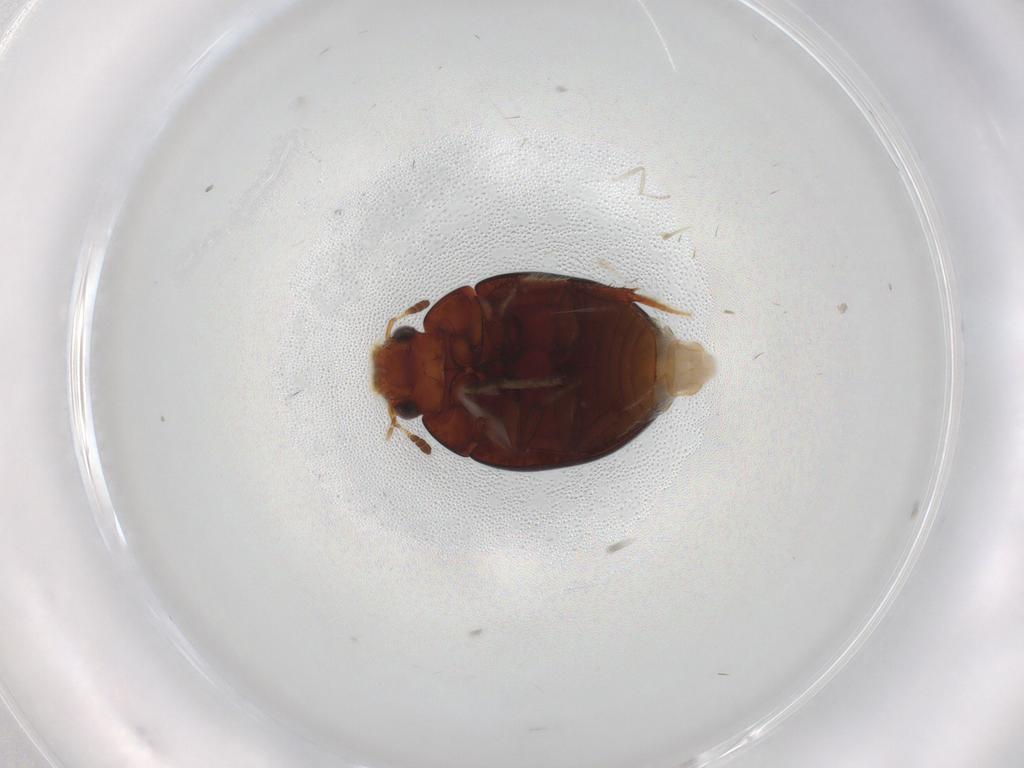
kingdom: Animalia
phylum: Arthropoda
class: Insecta
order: Coleoptera
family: Hydrophilidae
